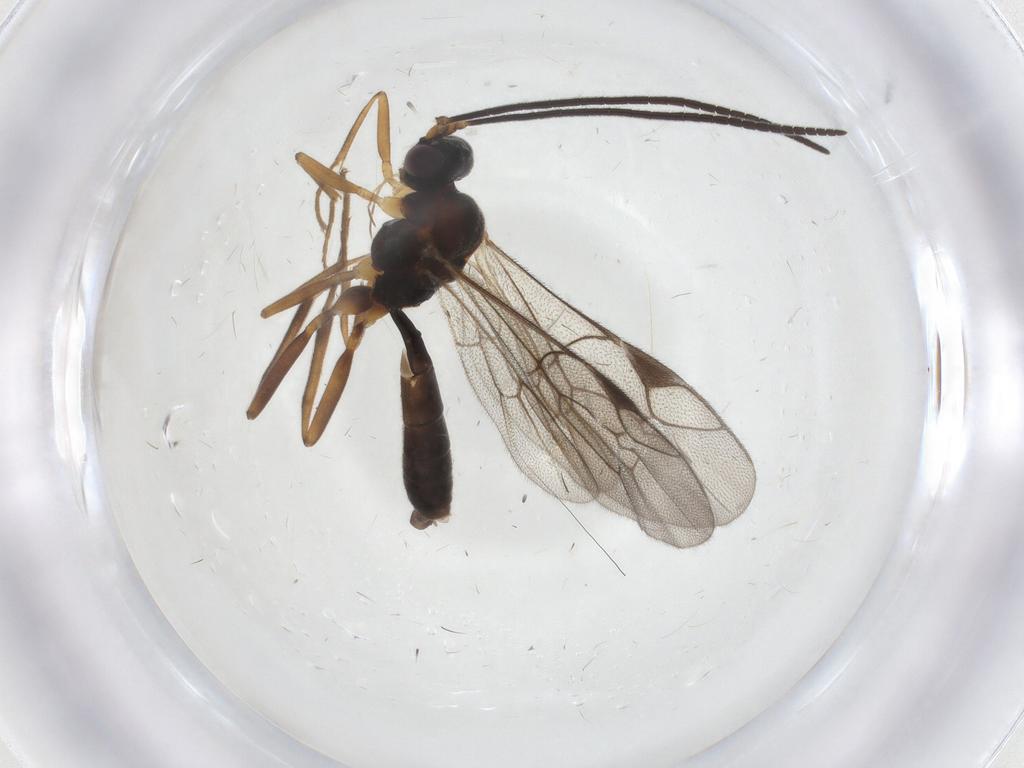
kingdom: Animalia
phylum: Arthropoda
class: Insecta
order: Hymenoptera
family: Ichneumonidae
